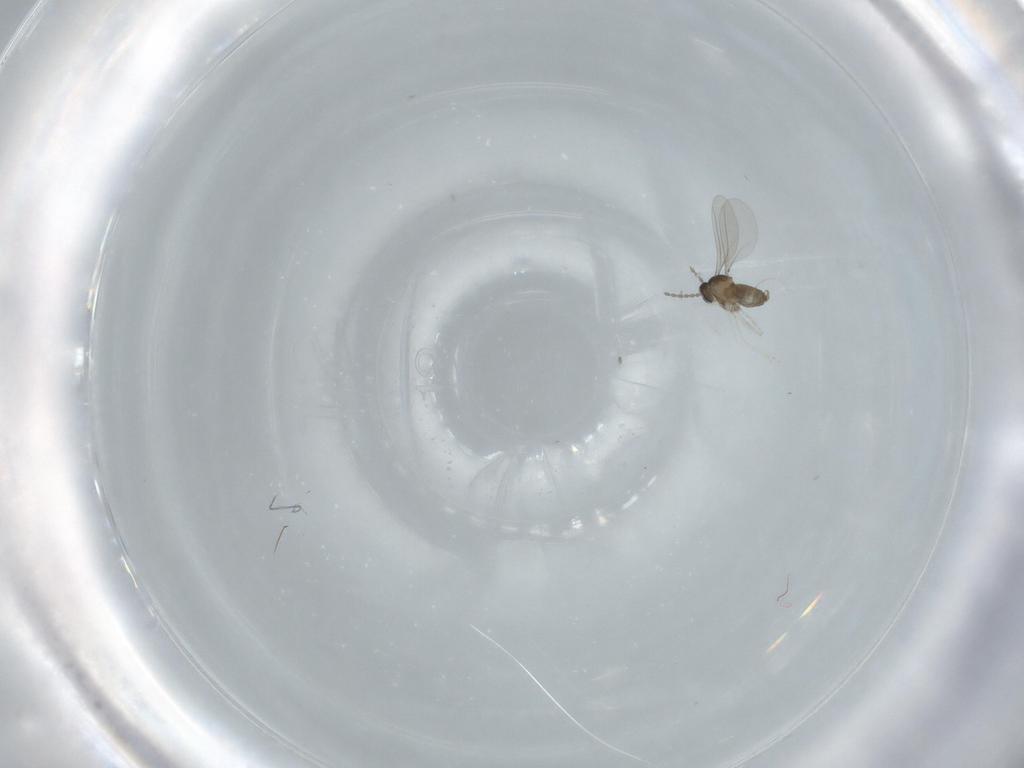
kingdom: Animalia
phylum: Arthropoda
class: Insecta
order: Diptera
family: Cecidomyiidae
